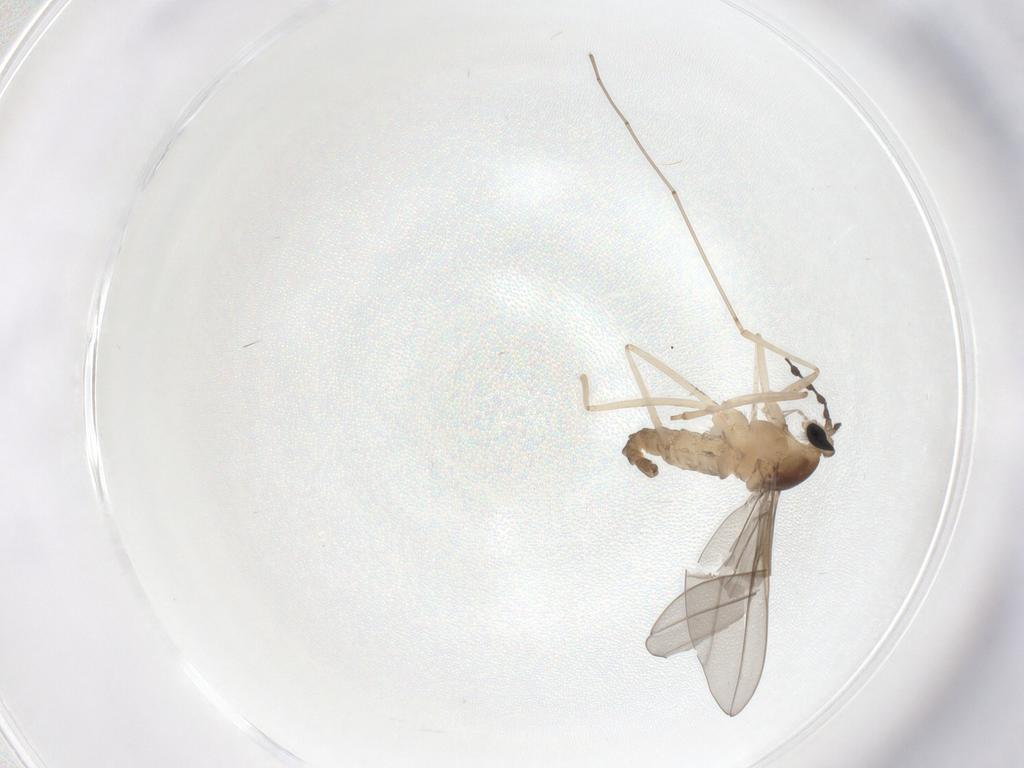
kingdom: Animalia
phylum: Arthropoda
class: Insecta
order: Diptera
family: Cecidomyiidae
